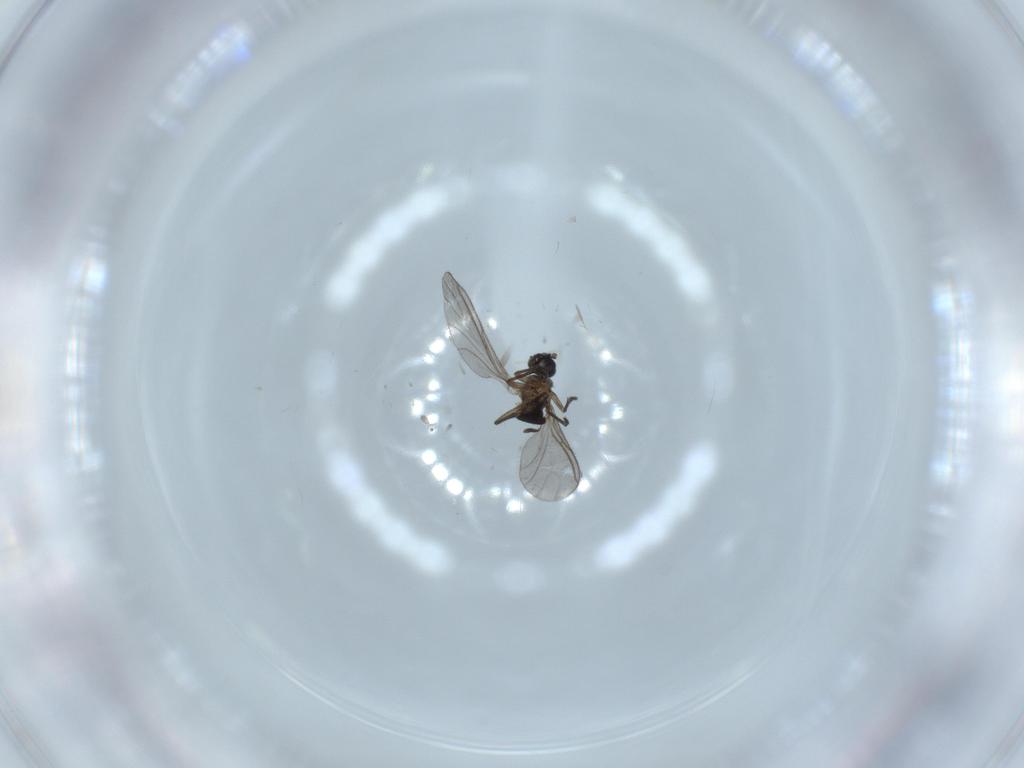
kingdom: Animalia
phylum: Arthropoda
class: Insecta
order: Diptera
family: Sciaridae
